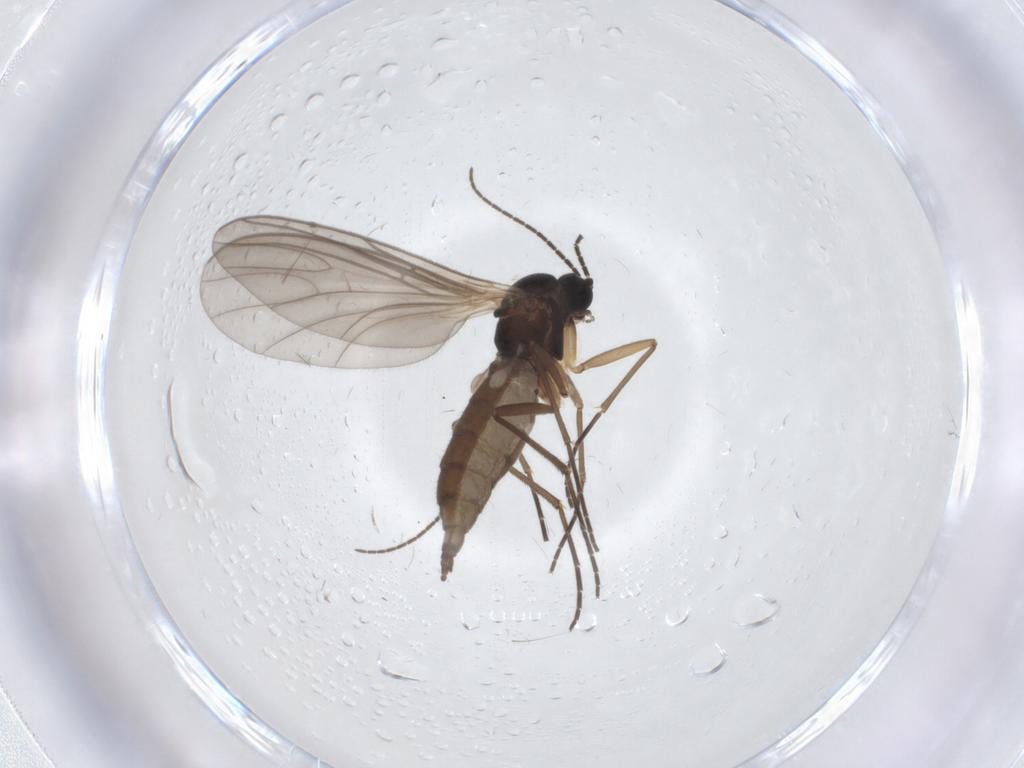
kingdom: Animalia
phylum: Arthropoda
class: Insecta
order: Diptera
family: Sciaridae
